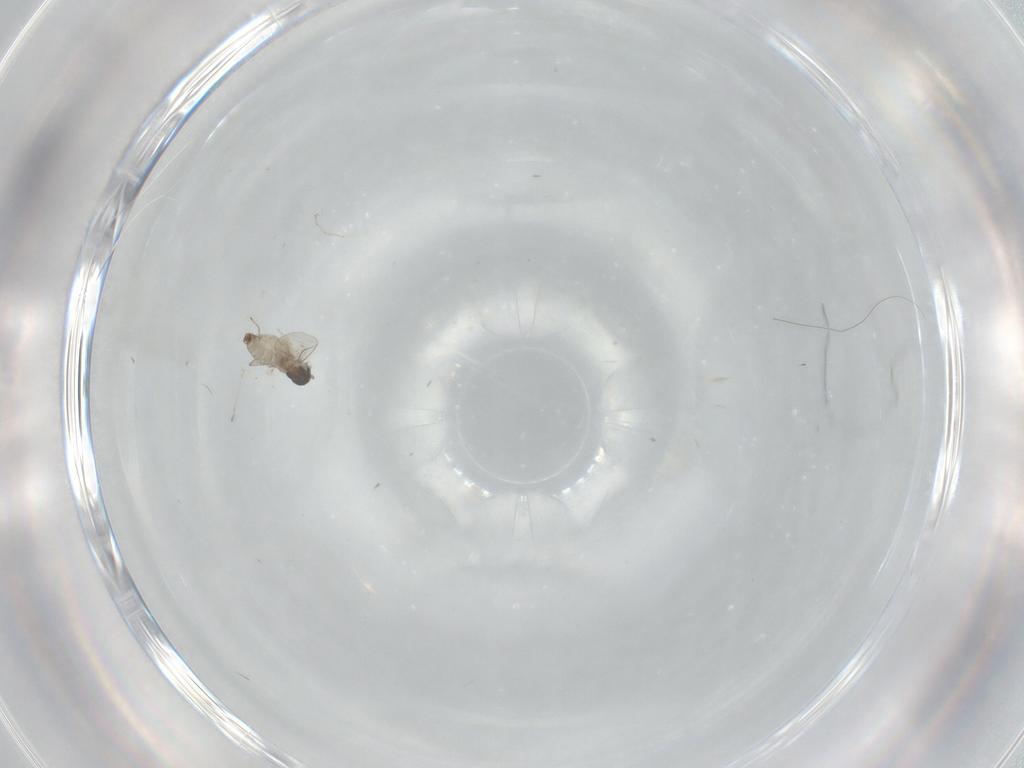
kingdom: Animalia
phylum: Arthropoda
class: Insecta
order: Diptera
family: Cecidomyiidae
